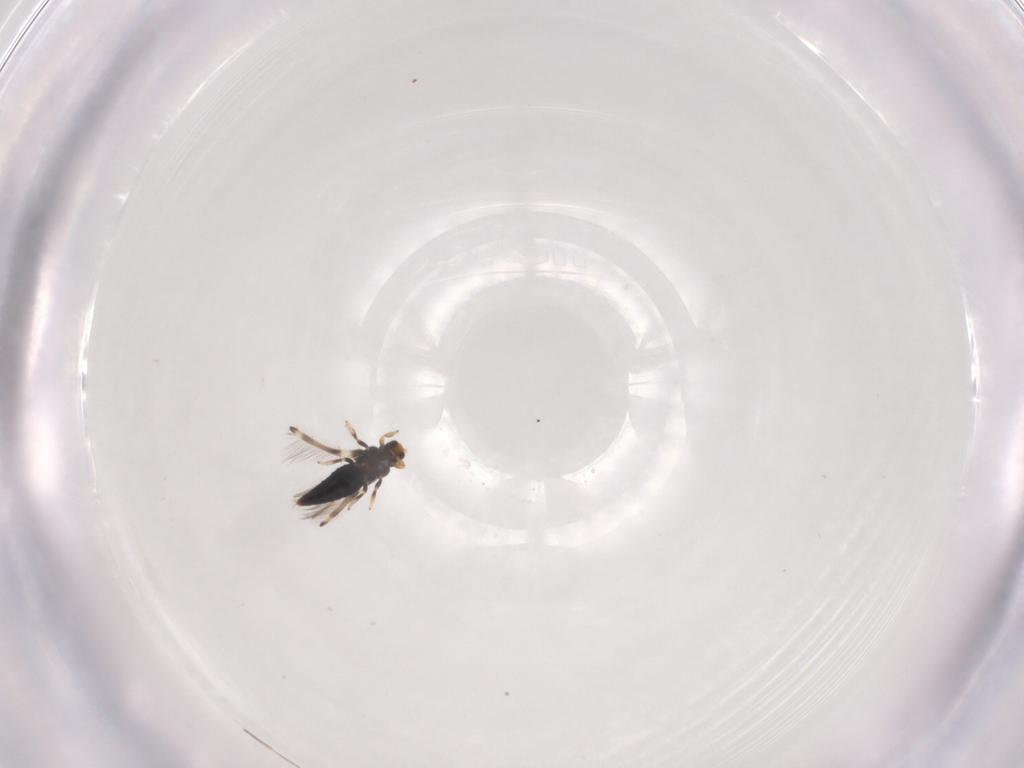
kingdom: Animalia
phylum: Arthropoda
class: Insecta
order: Thysanoptera
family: Thripidae
